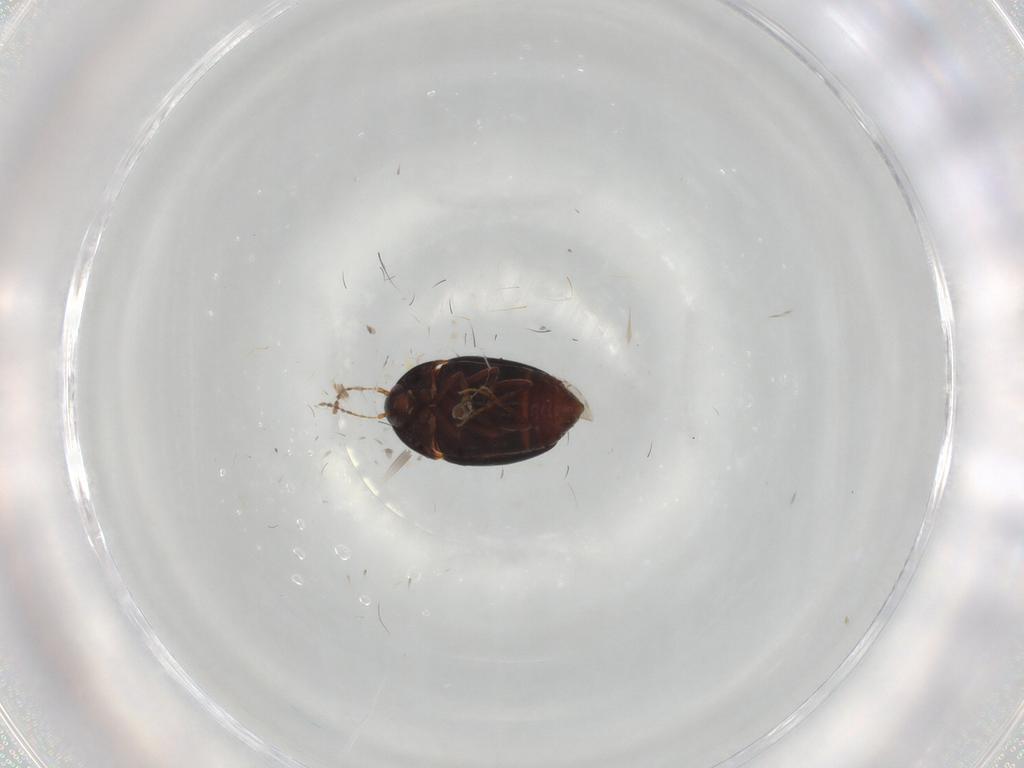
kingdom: Animalia
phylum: Arthropoda
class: Insecta
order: Coleoptera
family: Staphylinidae
